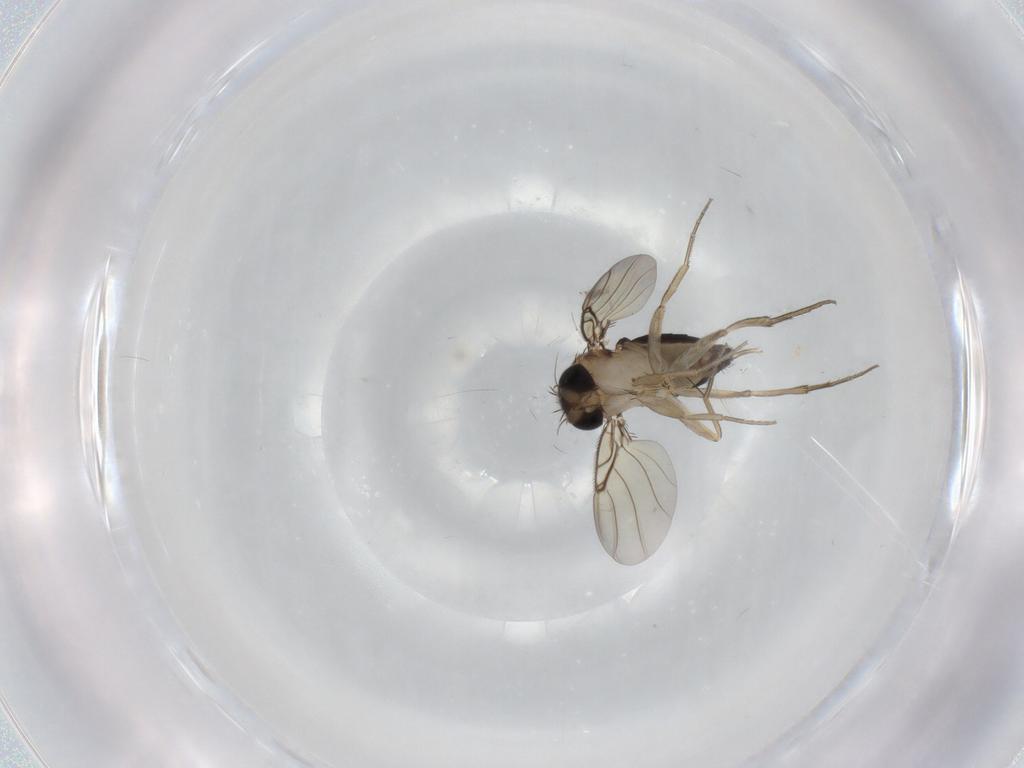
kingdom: Animalia
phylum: Arthropoda
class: Insecta
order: Diptera
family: Phoridae
